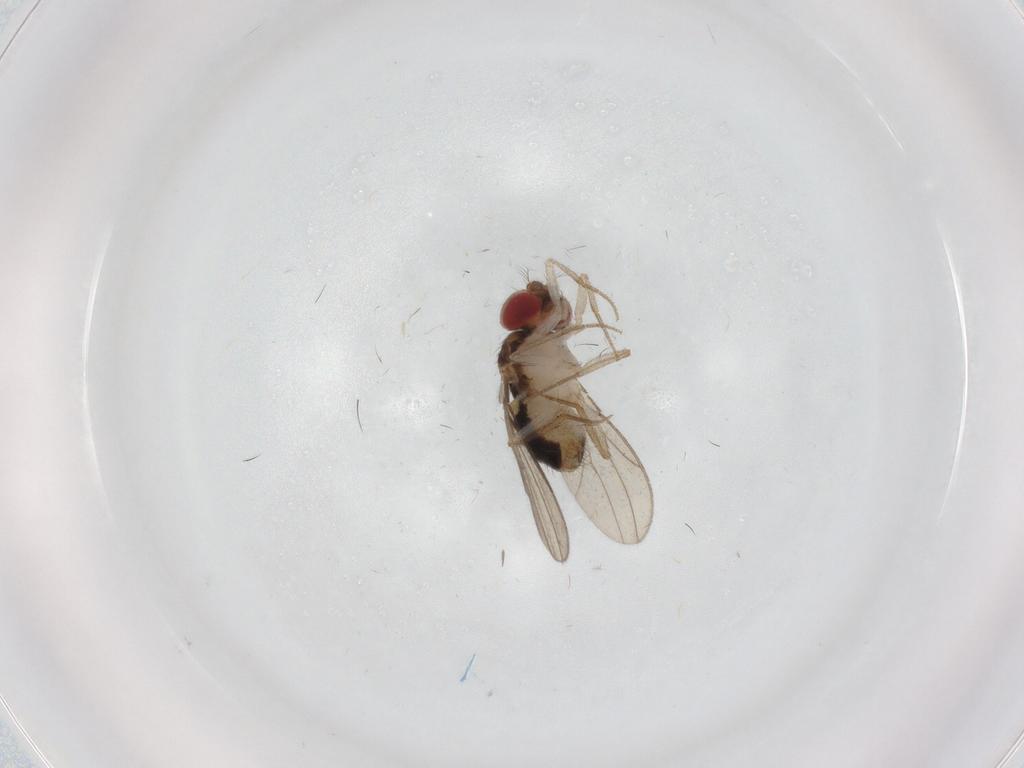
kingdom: Animalia
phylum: Arthropoda
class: Insecta
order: Diptera
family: Drosophilidae
